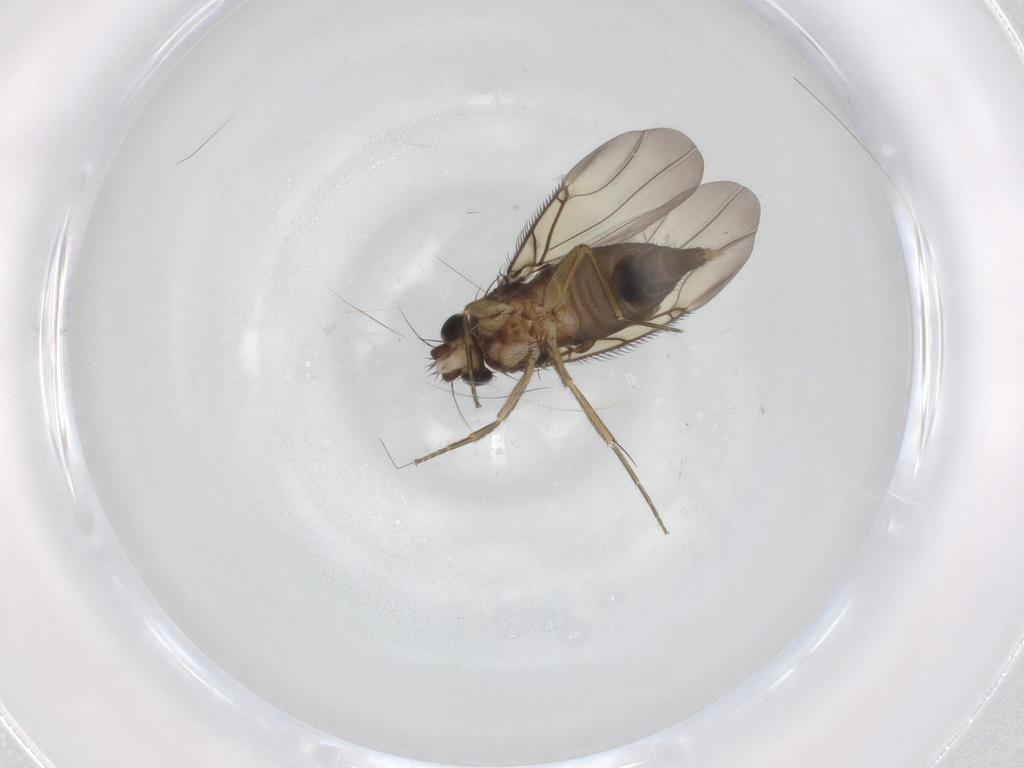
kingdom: Animalia
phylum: Arthropoda
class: Insecta
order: Diptera
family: Phoridae
